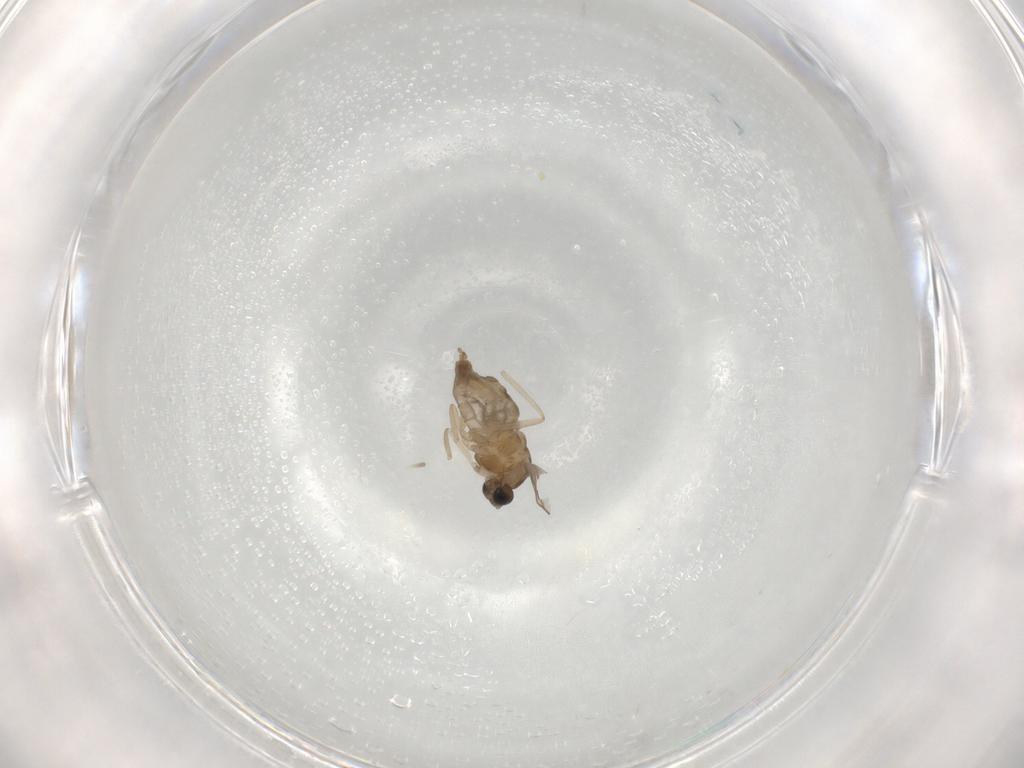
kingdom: Animalia
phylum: Arthropoda
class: Insecta
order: Diptera
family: Cecidomyiidae
